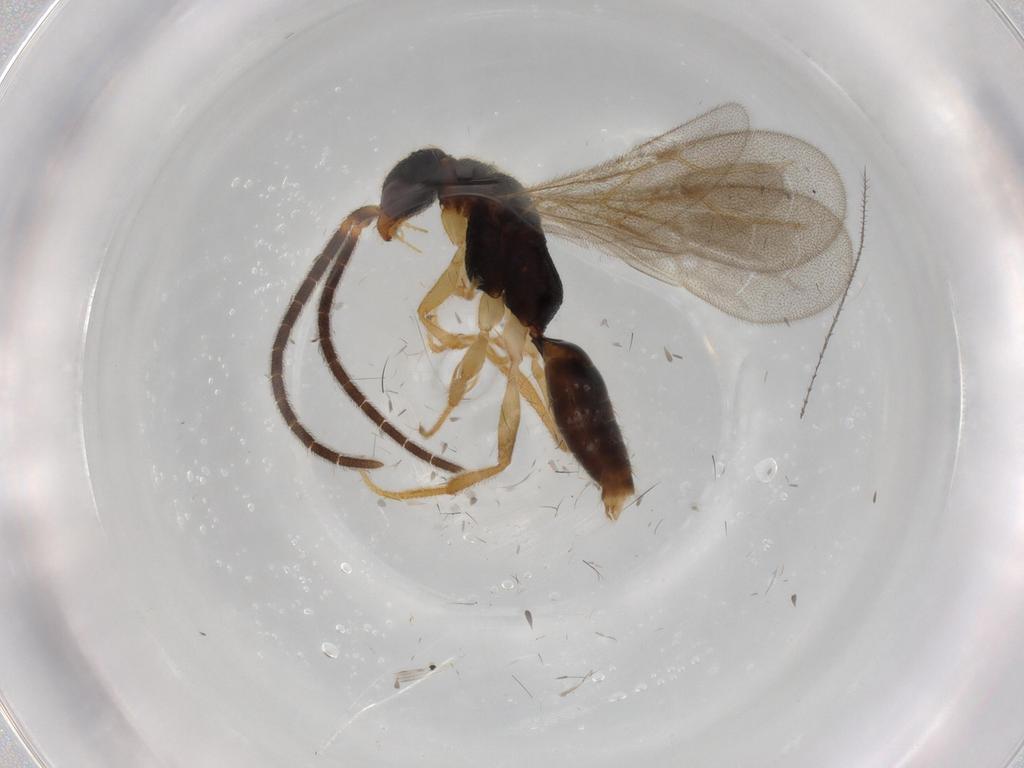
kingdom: Animalia
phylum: Arthropoda
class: Insecta
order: Hymenoptera
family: Bethylidae
